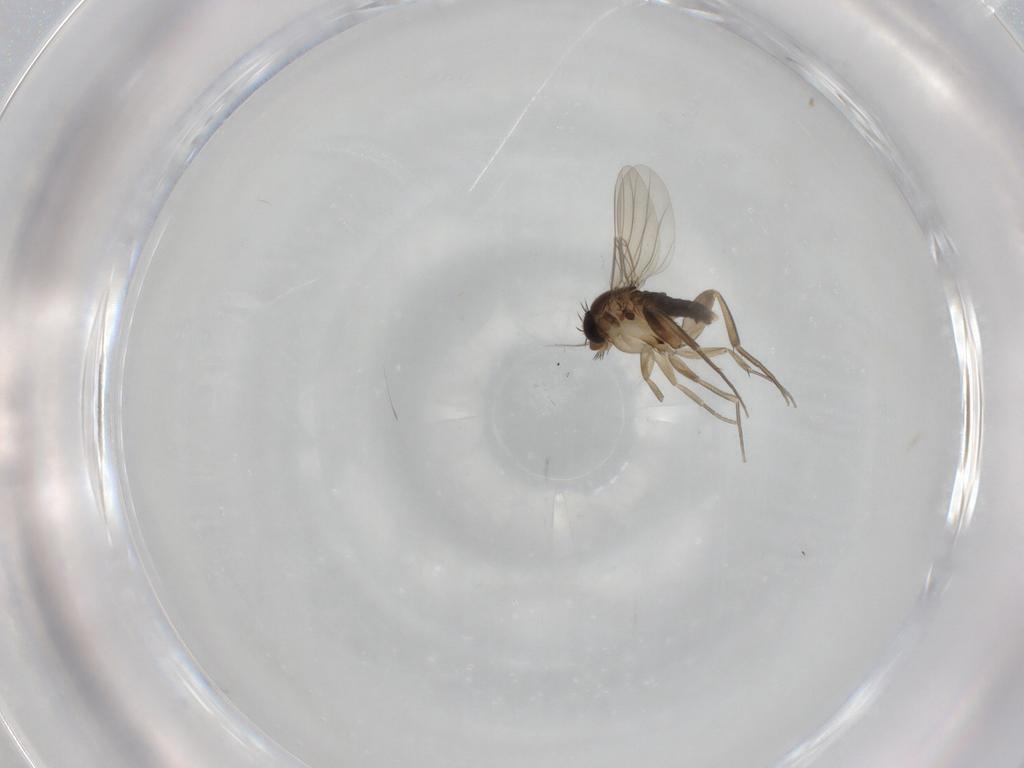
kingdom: Animalia
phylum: Arthropoda
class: Insecta
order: Diptera
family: Phoridae
